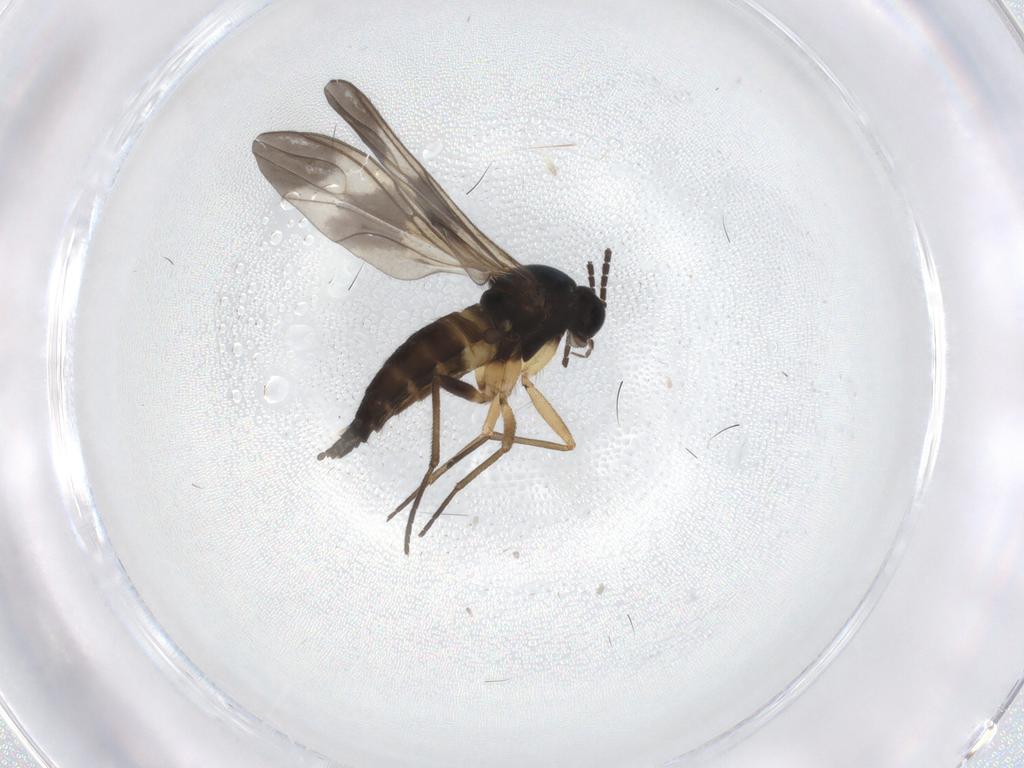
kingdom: Animalia
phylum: Arthropoda
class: Insecta
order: Diptera
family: Sciaridae
